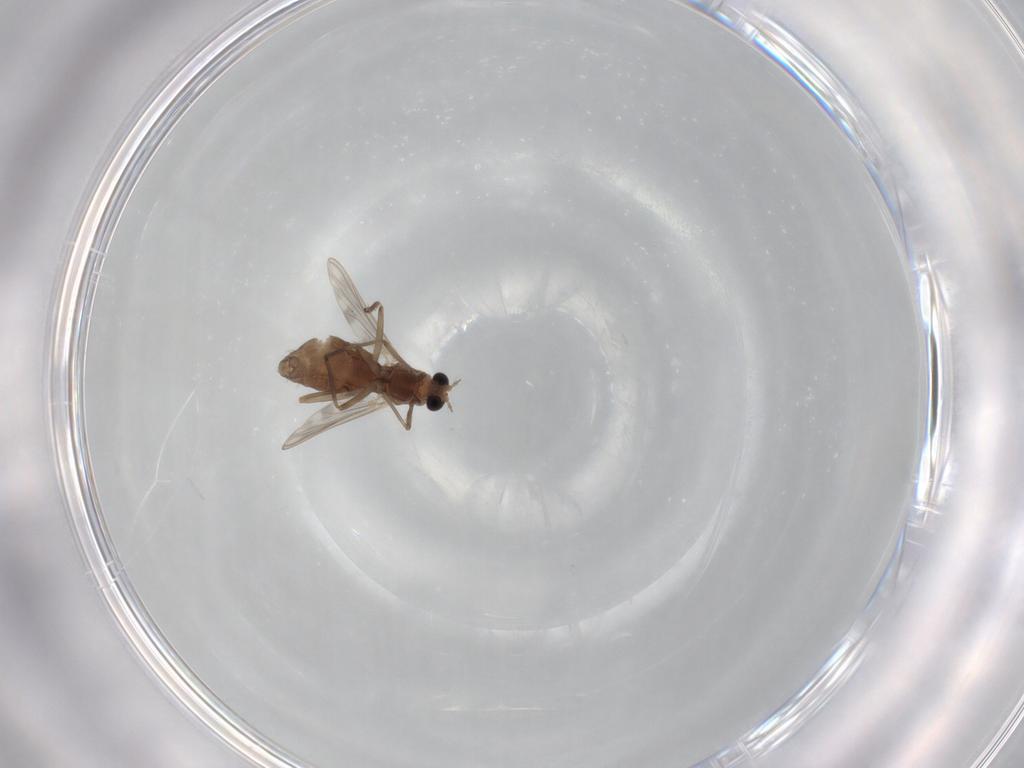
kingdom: Animalia
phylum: Arthropoda
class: Insecta
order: Diptera
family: Chironomidae
